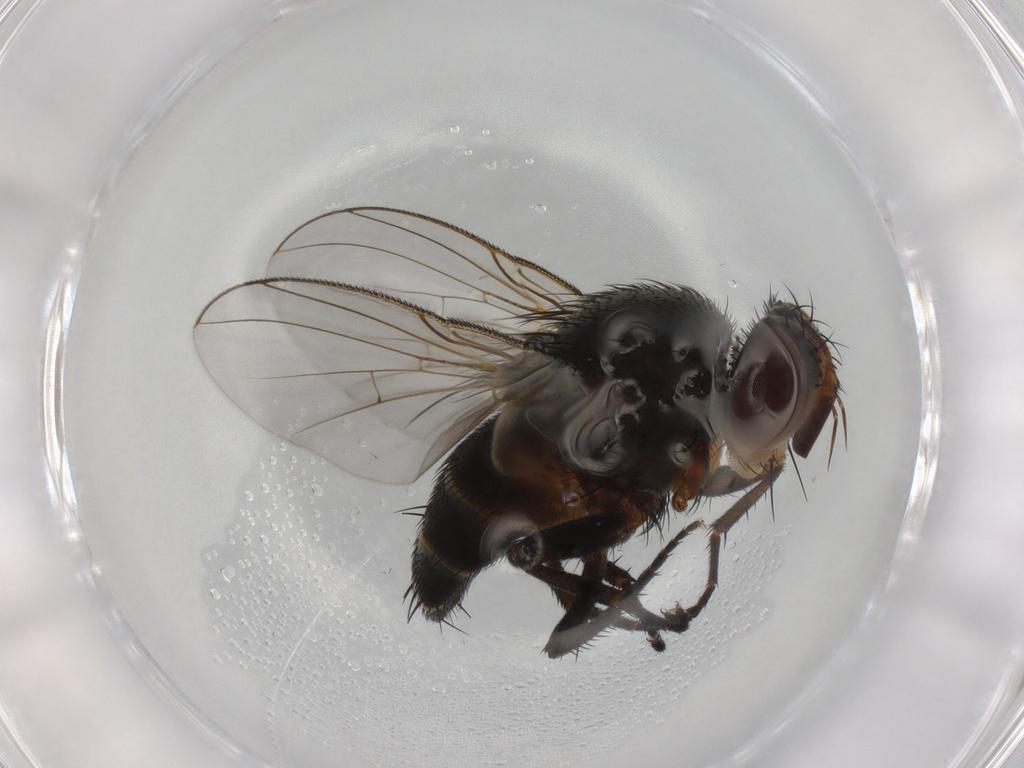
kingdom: Animalia
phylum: Arthropoda
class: Insecta
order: Diptera
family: Tachinidae
